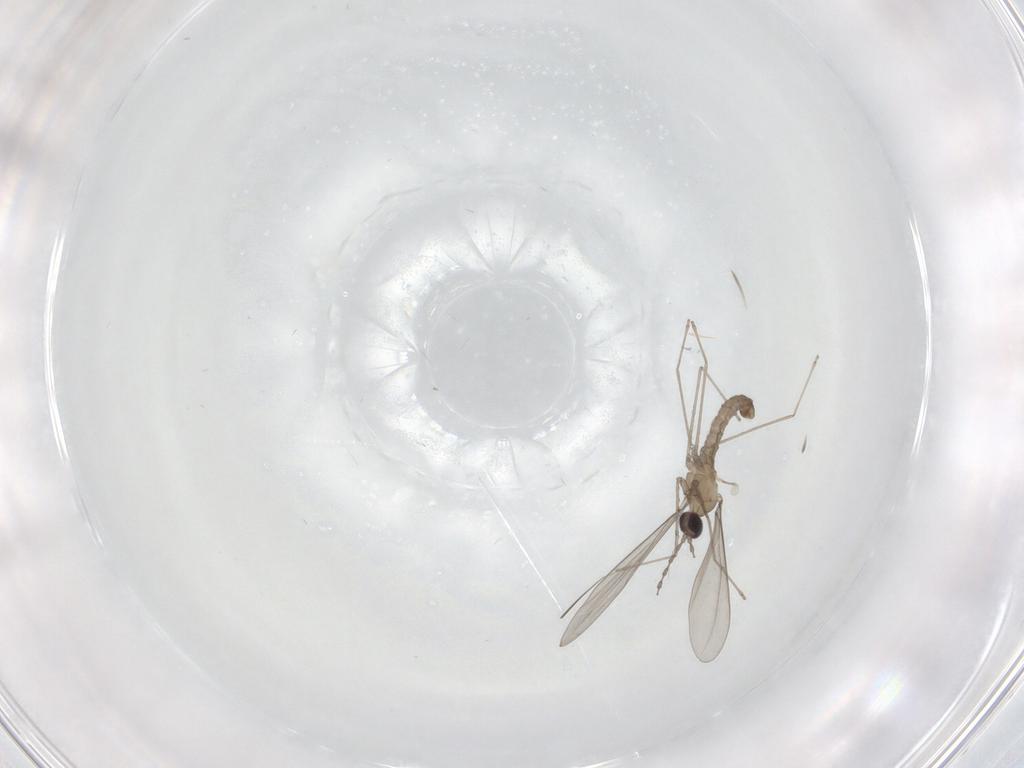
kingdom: Animalia
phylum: Arthropoda
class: Insecta
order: Diptera
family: Cecidomyiidae
